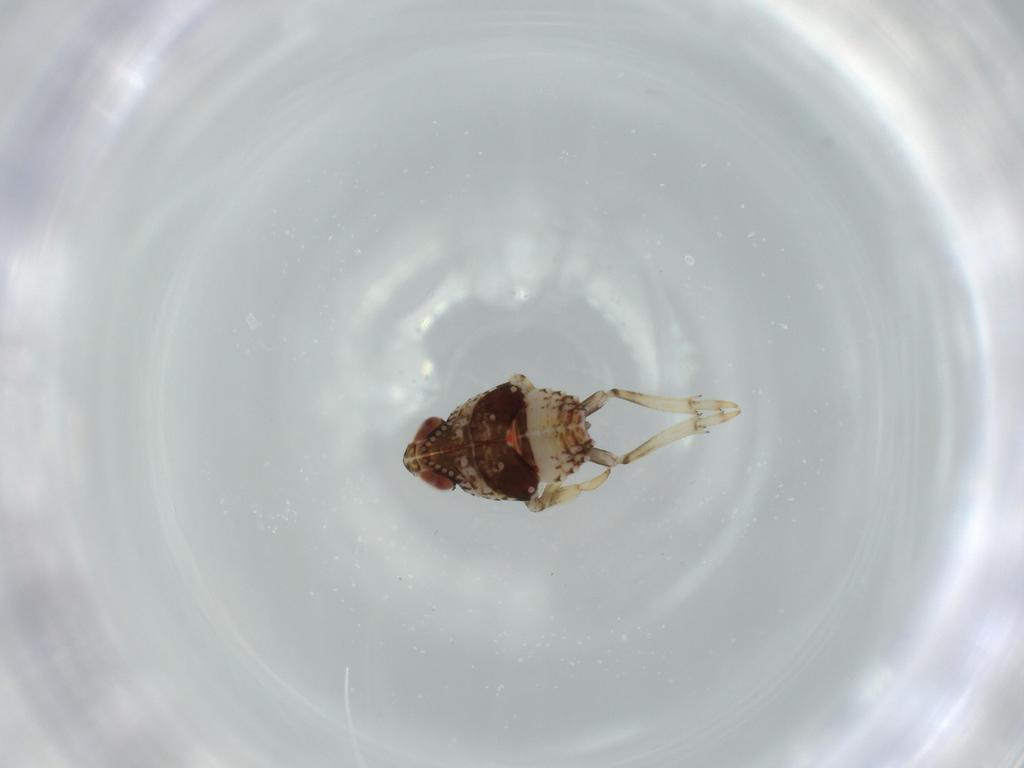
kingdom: Animalia
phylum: Arthropoda
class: Insecta
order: Hemiptera
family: Issidae
